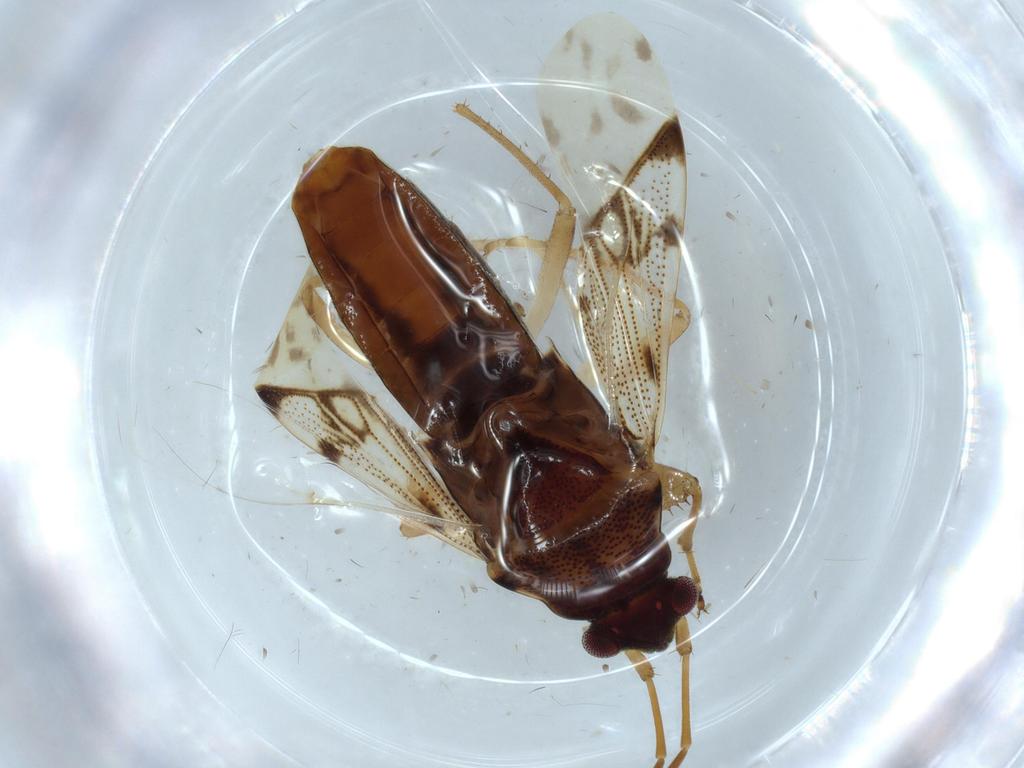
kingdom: Animalia
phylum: Arthropoda
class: Insecta
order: Hemiptera
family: Rhyparochromidae
